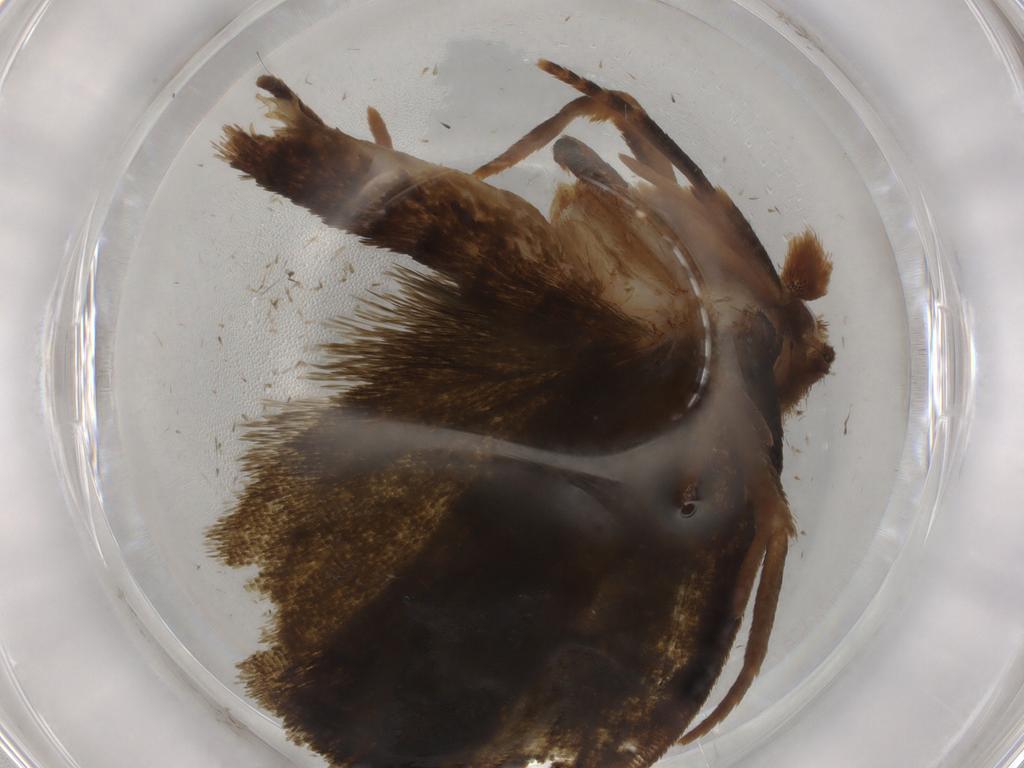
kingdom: Animalia
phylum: Arthropoda
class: Insecta
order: Lepidoptera
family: Geometridae
